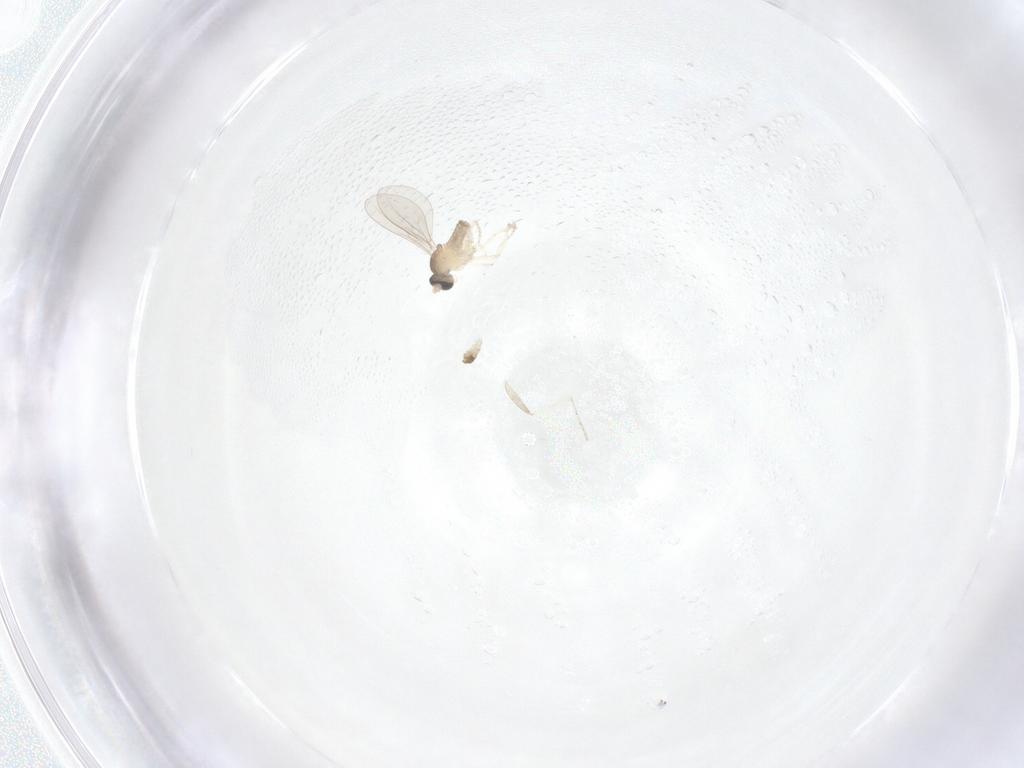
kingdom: Animalia
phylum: Arthropoda
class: Insecta
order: Diptera
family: Cecidomyiidae
